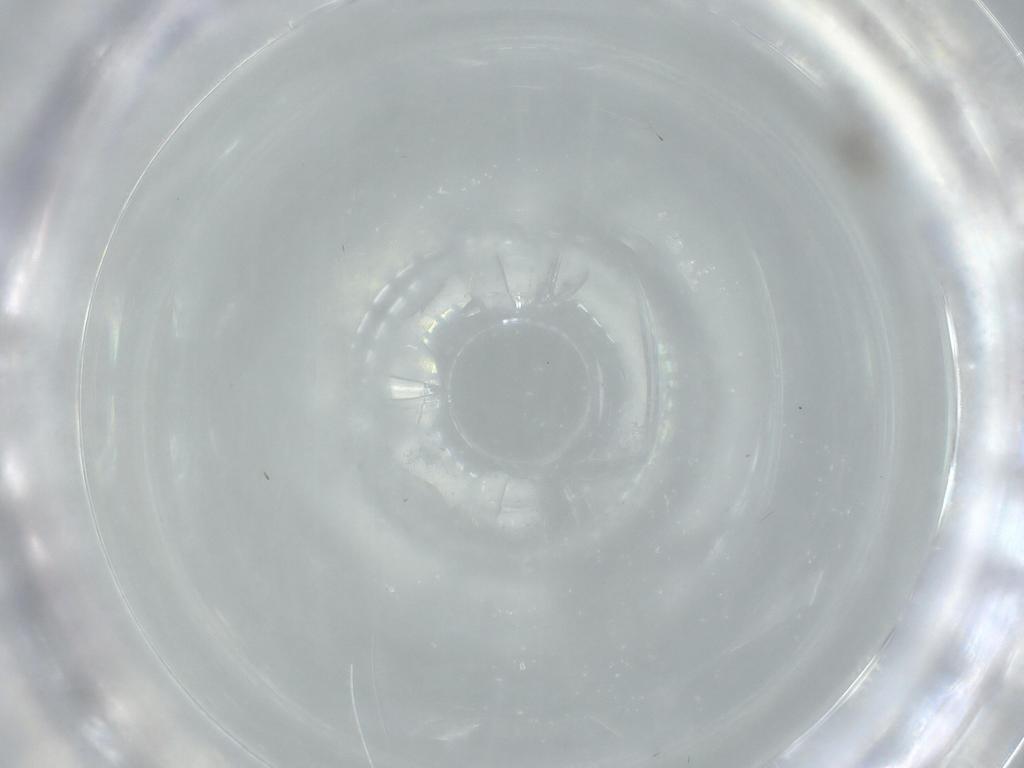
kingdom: Animalia
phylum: Arthropoda
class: Insecta
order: Diptera
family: Cecidomyiidae
